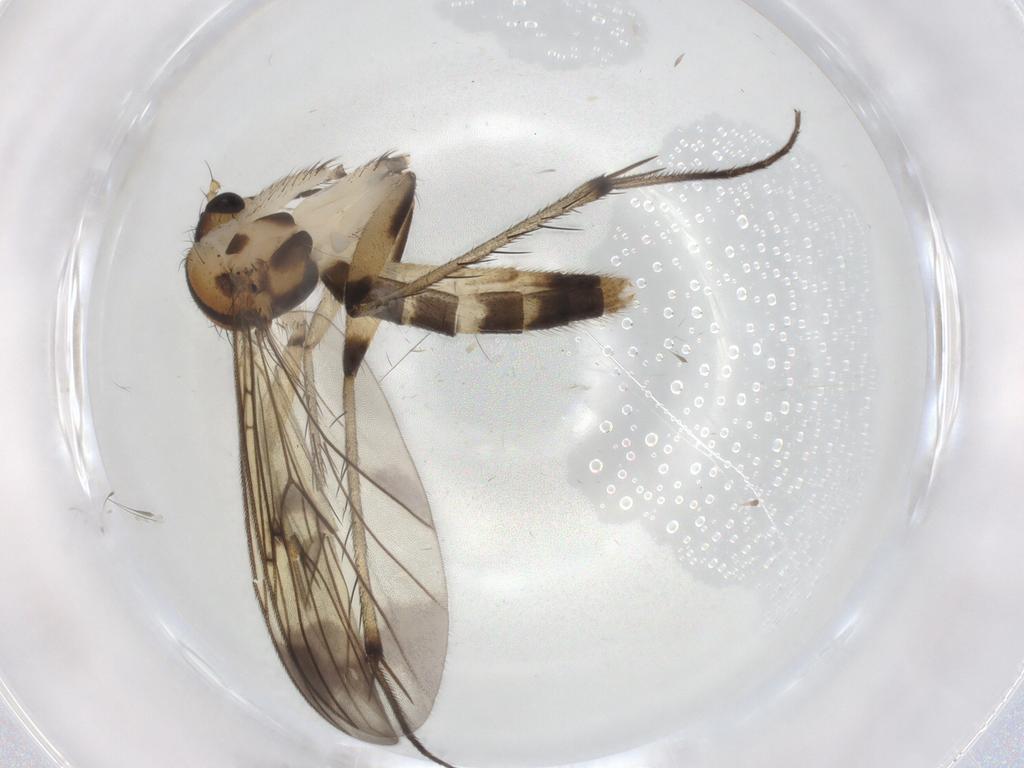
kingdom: Animalia
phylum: Arthropoda
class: Insecta
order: Diptera
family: Mycetophilidae
